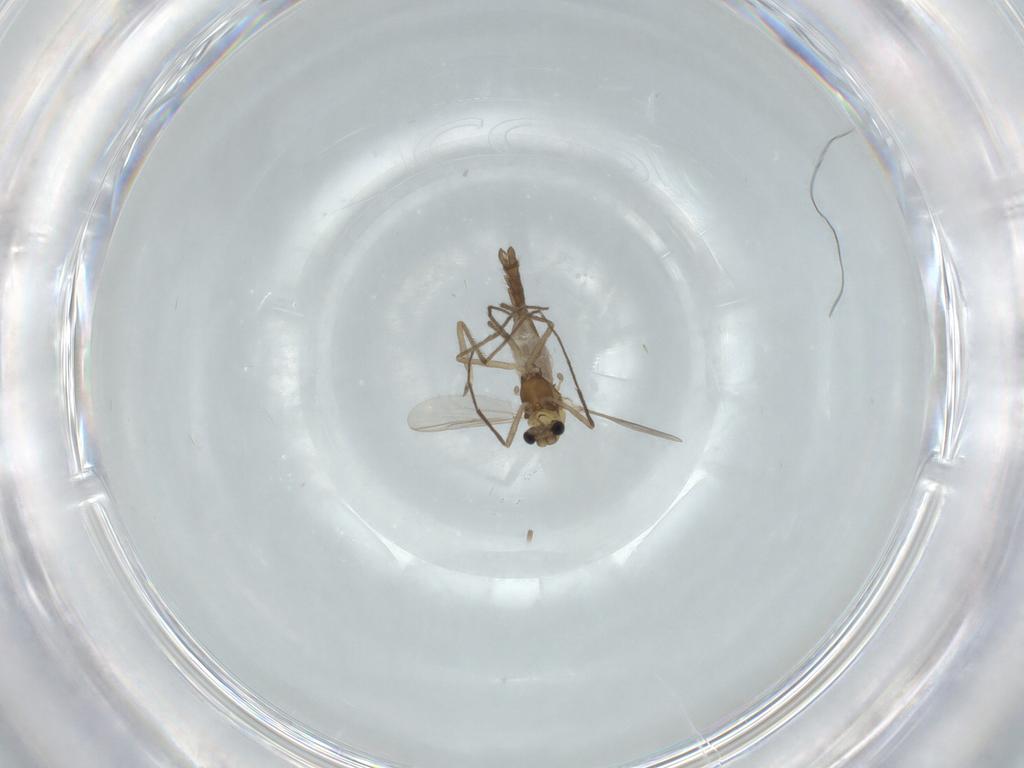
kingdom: Animalia
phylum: Arthropoda
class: Insecta
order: Diptera
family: Chironomidae
